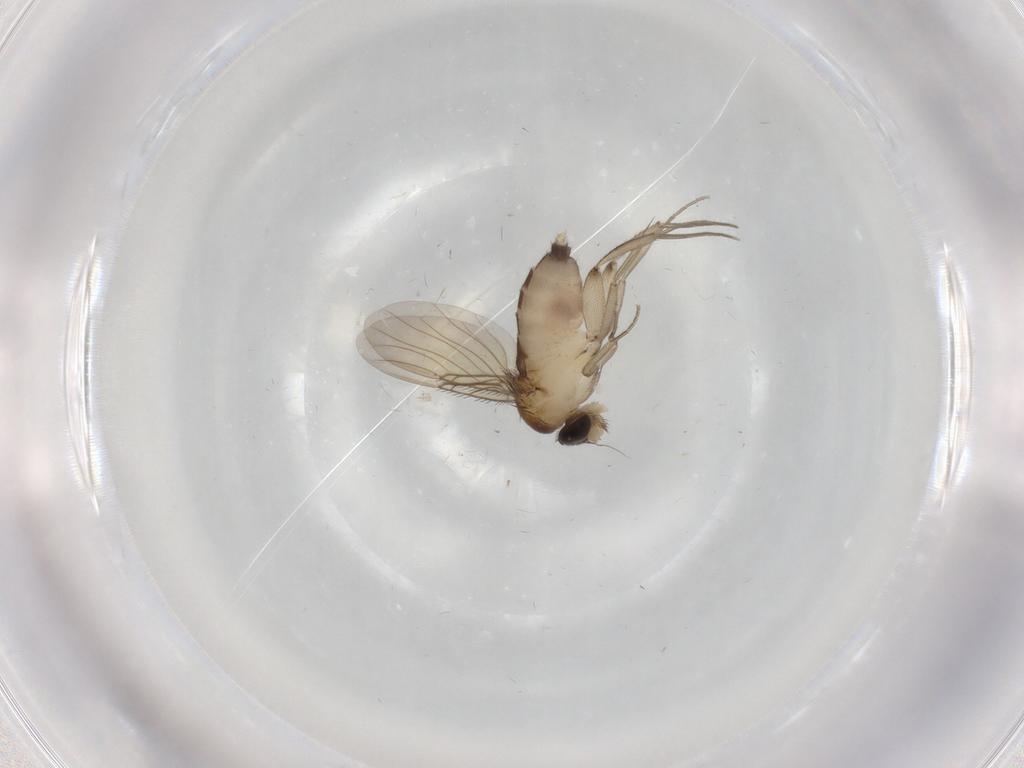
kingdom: Animalia
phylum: Arthropoda
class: Insecta
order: Diptera
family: Phoridae
